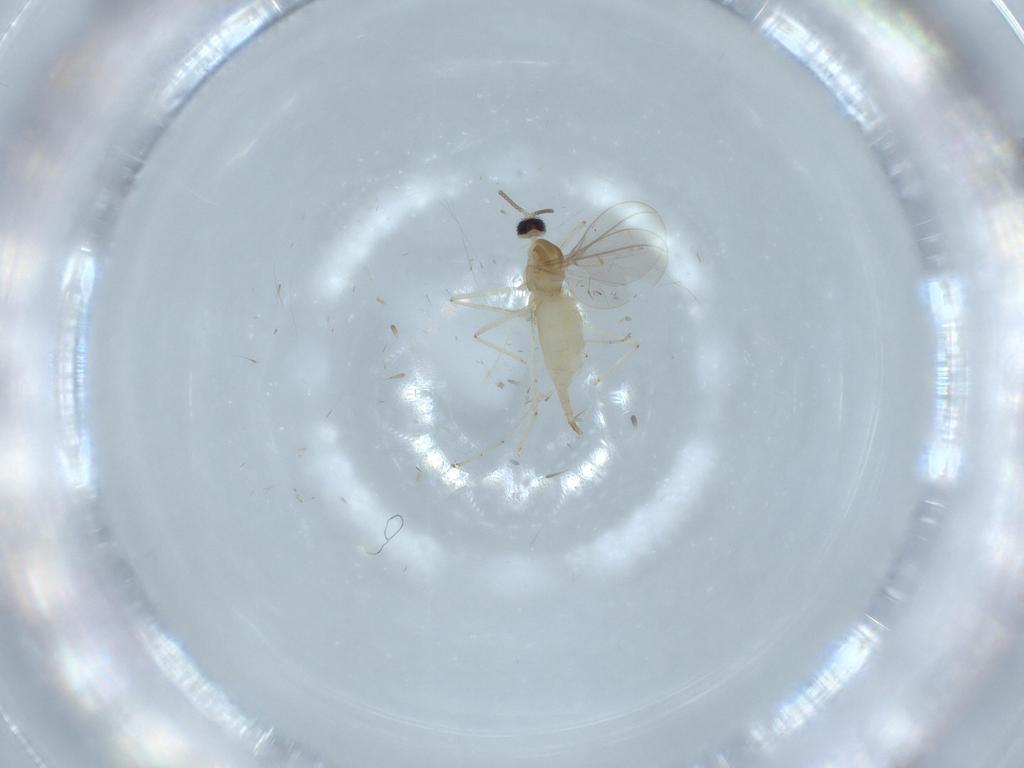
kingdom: Animalia
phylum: Arthropoda
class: Insecta
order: Diptera
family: Cecidomyiidae
